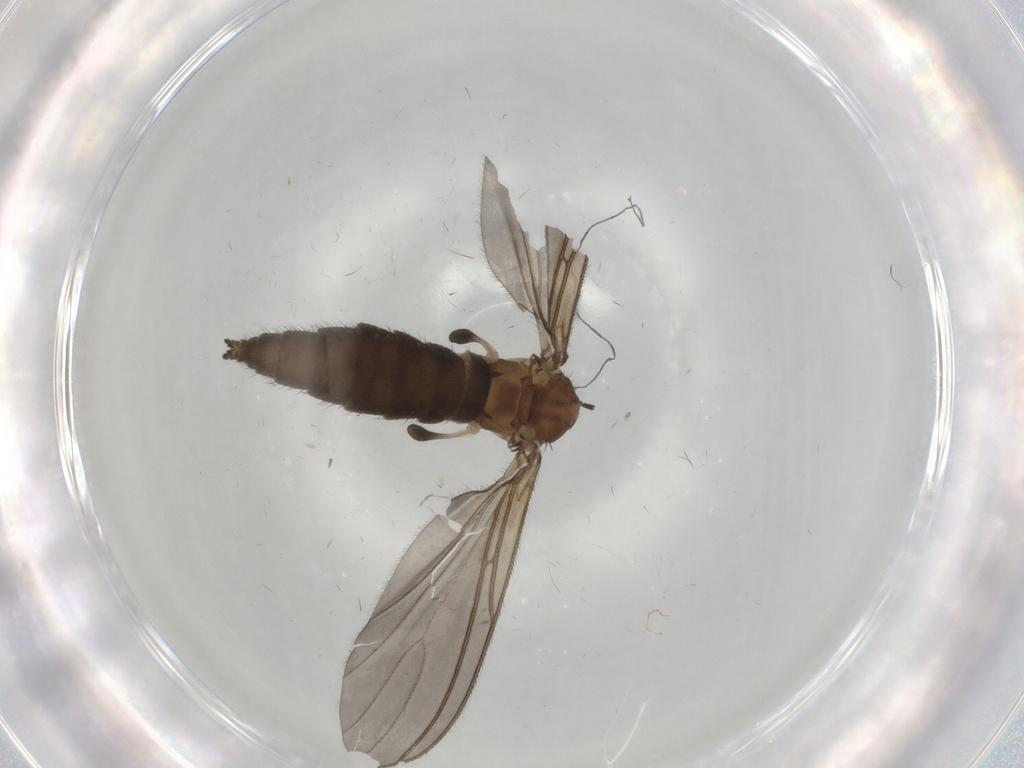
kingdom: Animalia
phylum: Arthropoda
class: Insecta
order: Diptera
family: Sciaridae
